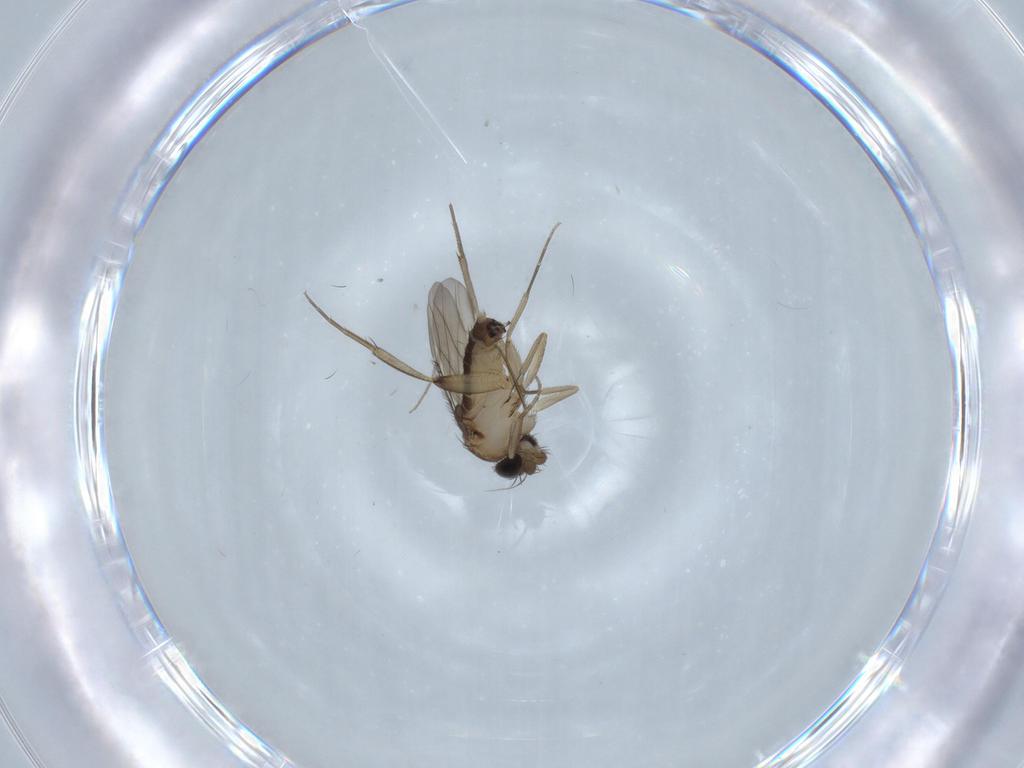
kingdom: Animalia
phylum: Arthropoda
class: Insecta
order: Diptera
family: Phoridae
